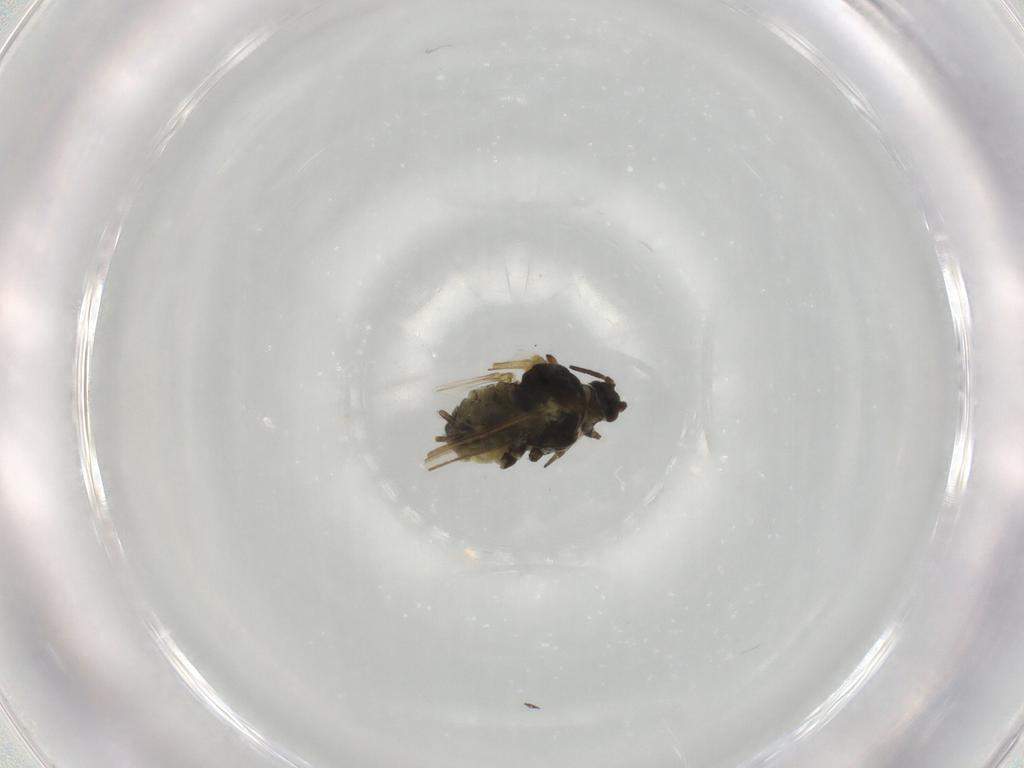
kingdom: Animalia
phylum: Arthropoda
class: Insecta
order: Hemiptera
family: Aphididae
